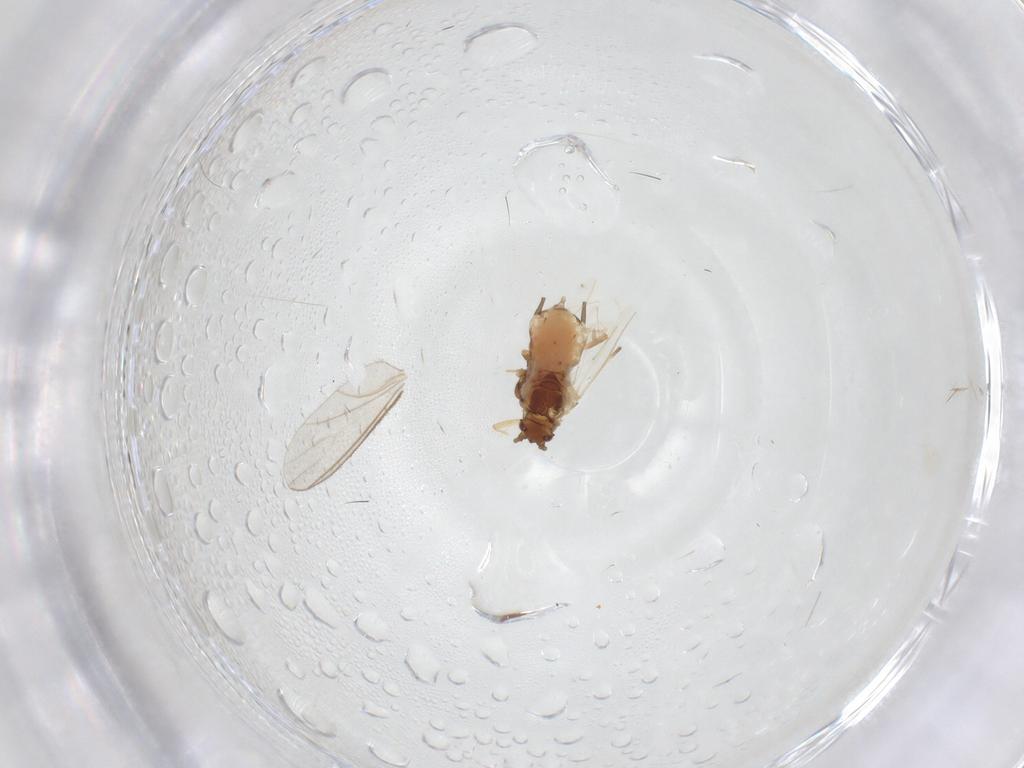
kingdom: Animalia
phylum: Arthropoda
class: Insecta
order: Hemiptera
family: Aphididae
